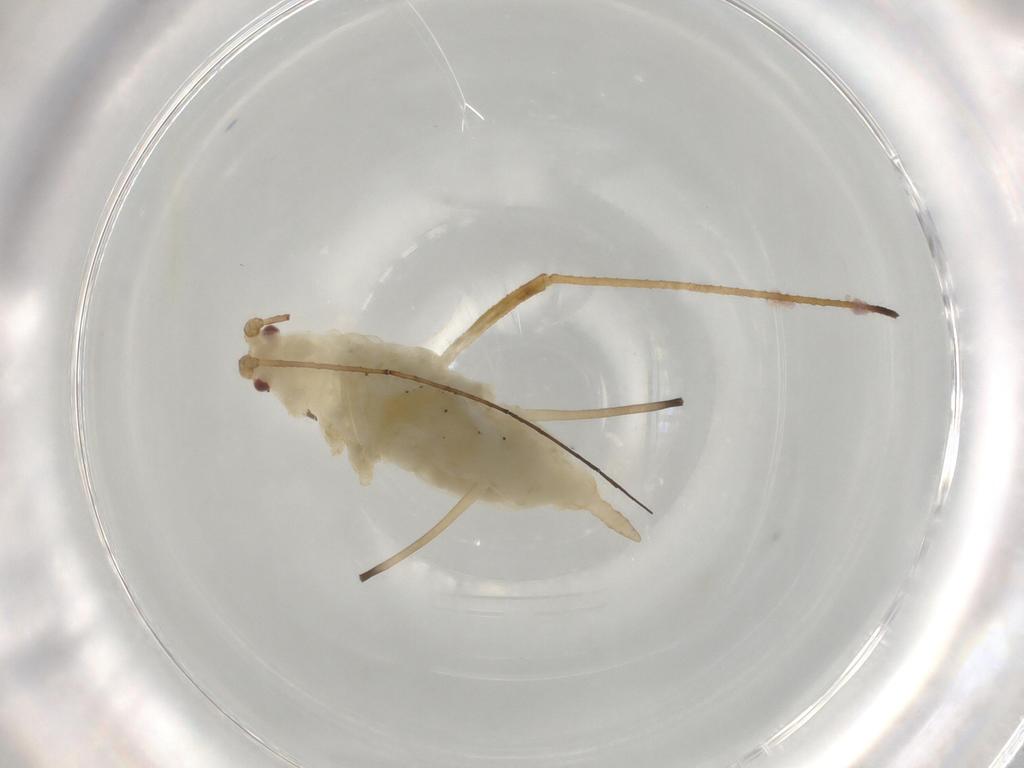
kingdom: Animalia
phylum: Arthropoda
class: Insecta
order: Hemiptera
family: Aphididae
